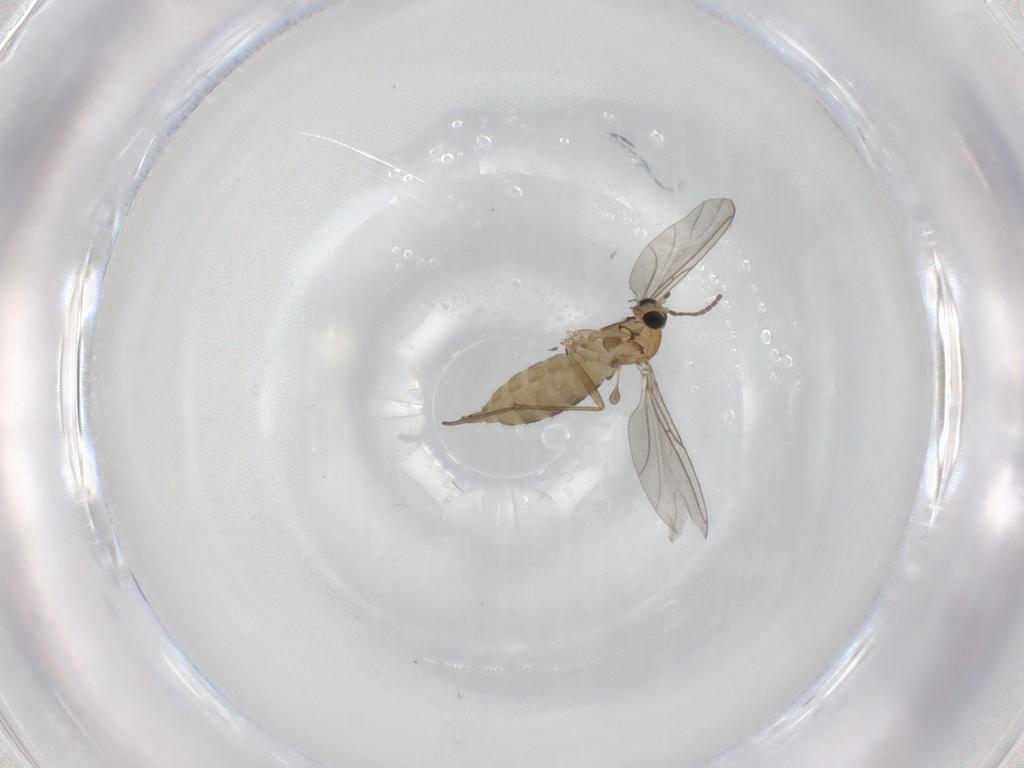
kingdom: Animalia
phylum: Arthropoda
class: Insecta
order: Diptera
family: Sciaridae
